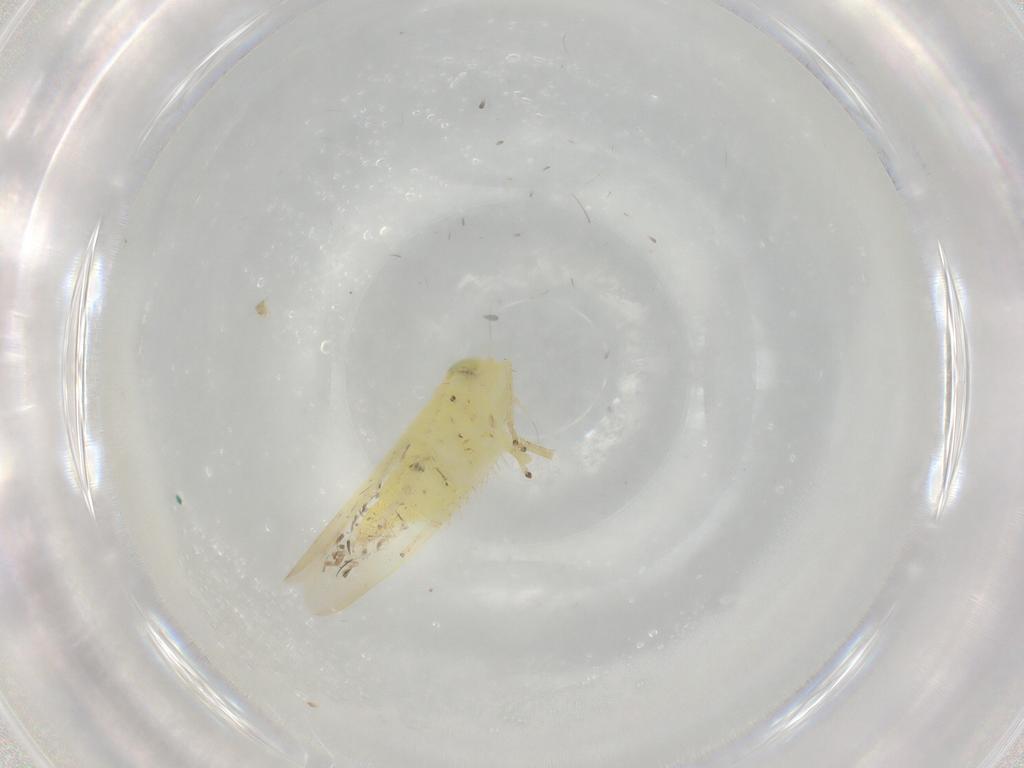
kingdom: Animalia
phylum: Arthropoda
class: Insecta
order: Hemiptera
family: Cicadellidae
